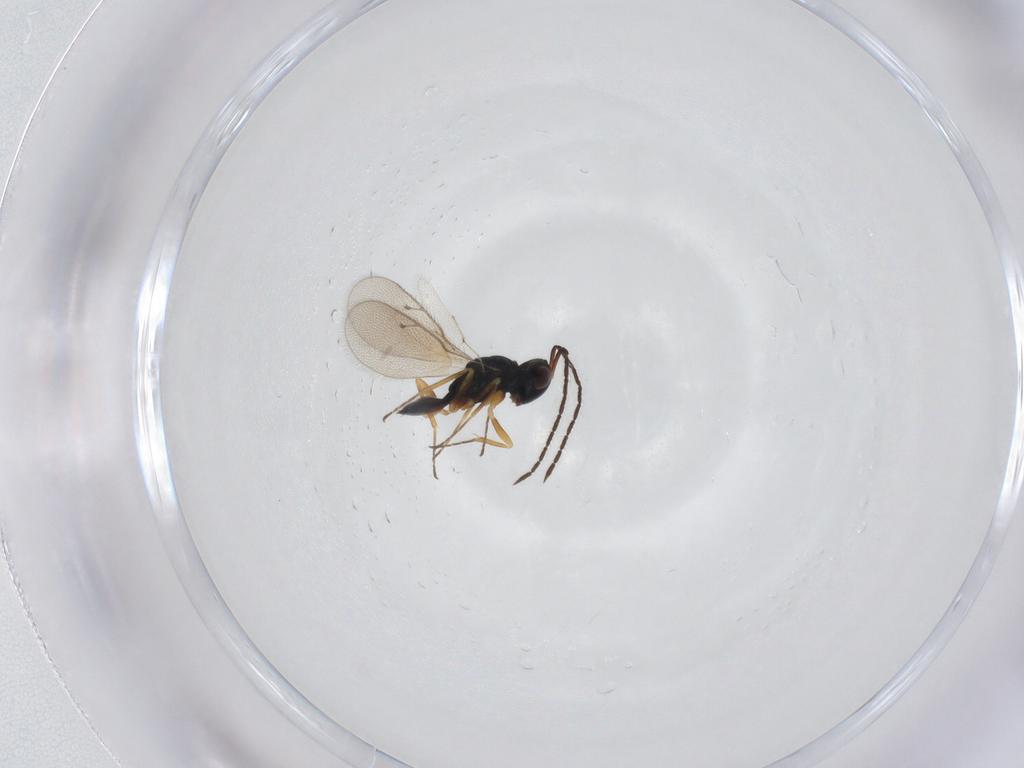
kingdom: Animalia
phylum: Arthropoda
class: Insecta
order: Hymenoptera
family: Pteromalidae
